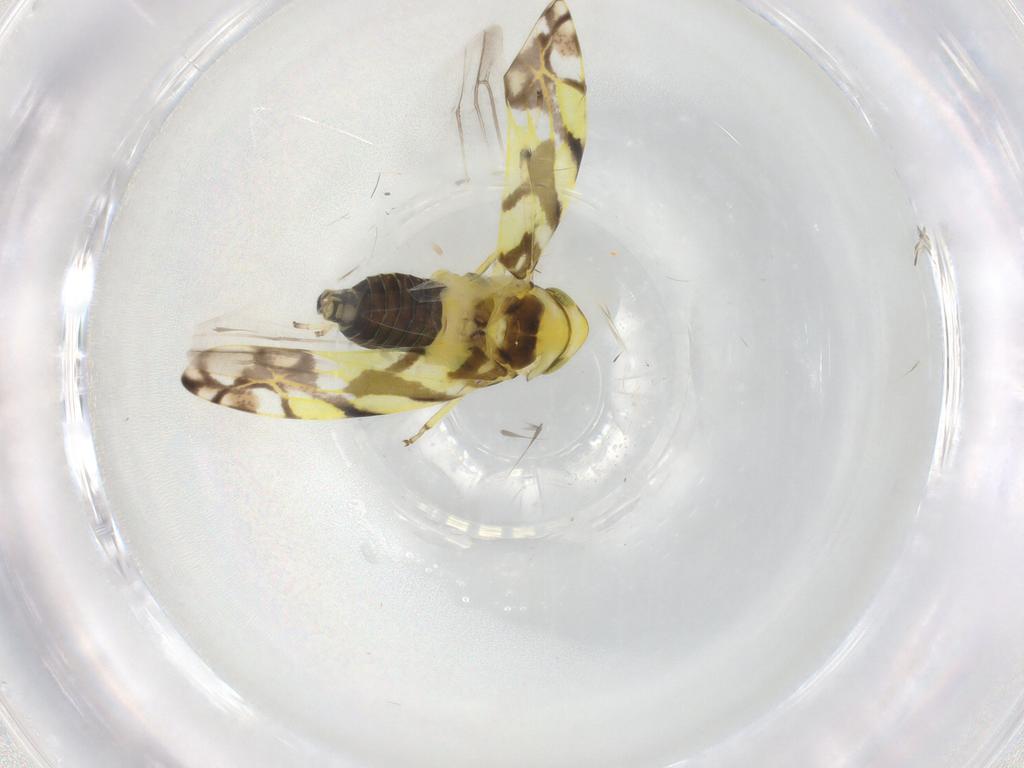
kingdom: Animalia
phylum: Arthropoda
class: Insecta
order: Hemiptera
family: Cicadellidae
